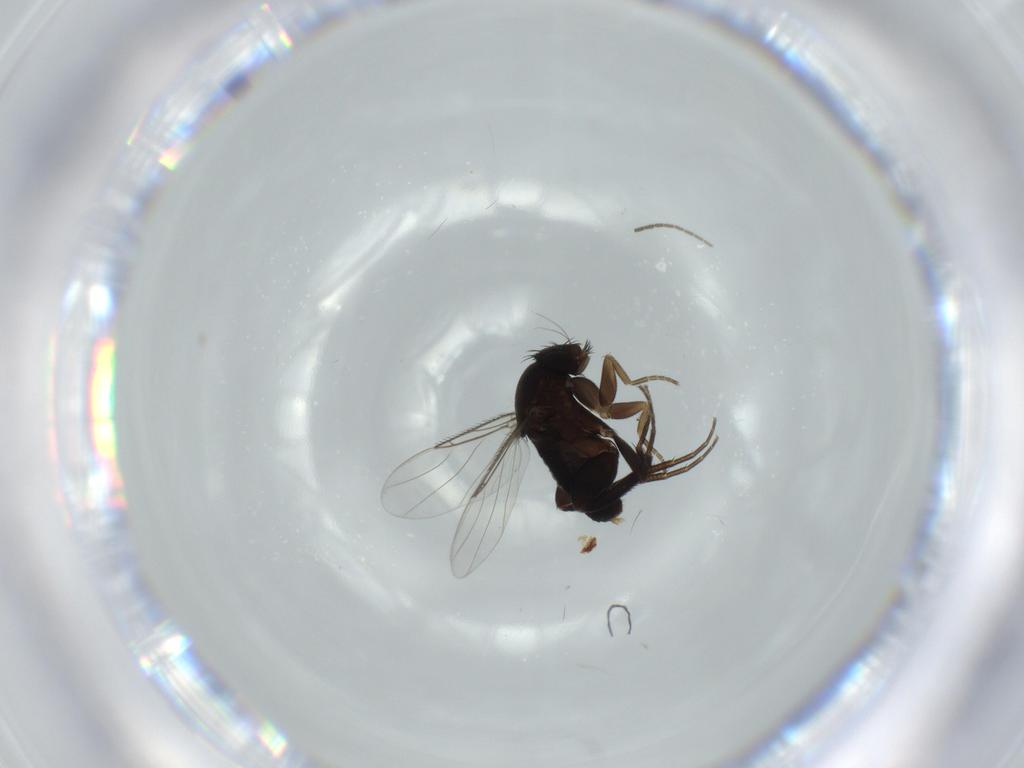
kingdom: Animalia
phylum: Arthropoda
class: Insecta
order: Diptera
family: Phoridae
